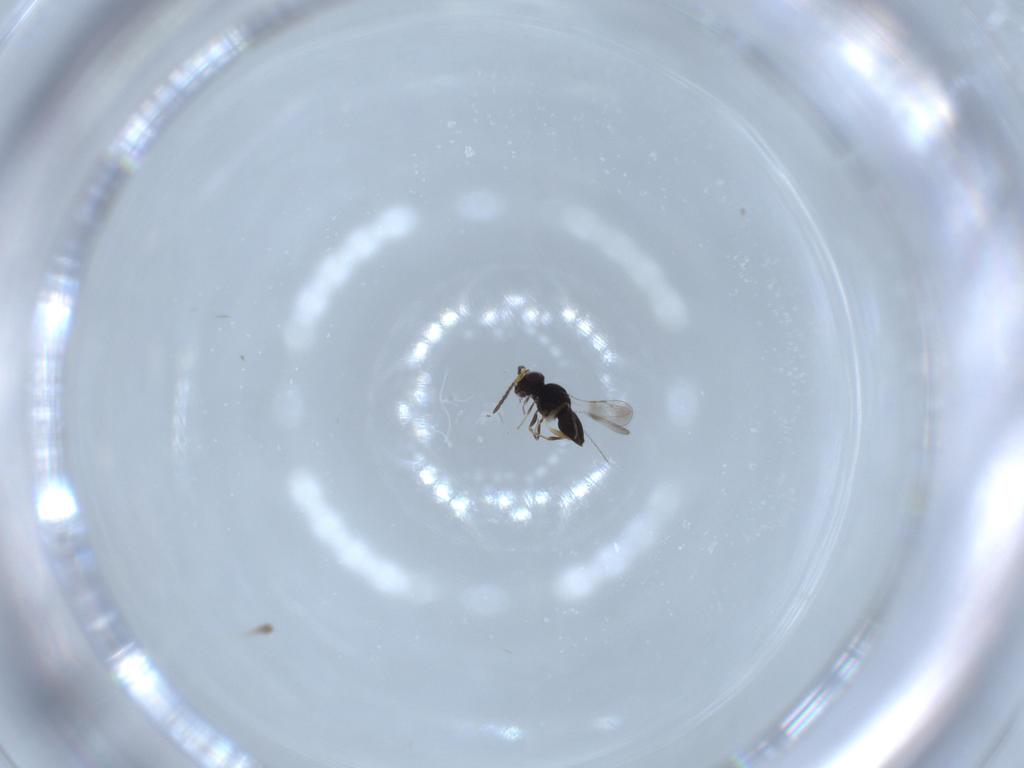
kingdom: Animalia
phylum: Arthropoda
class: Insecta
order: Hymenoptera
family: Ceraphronidae
